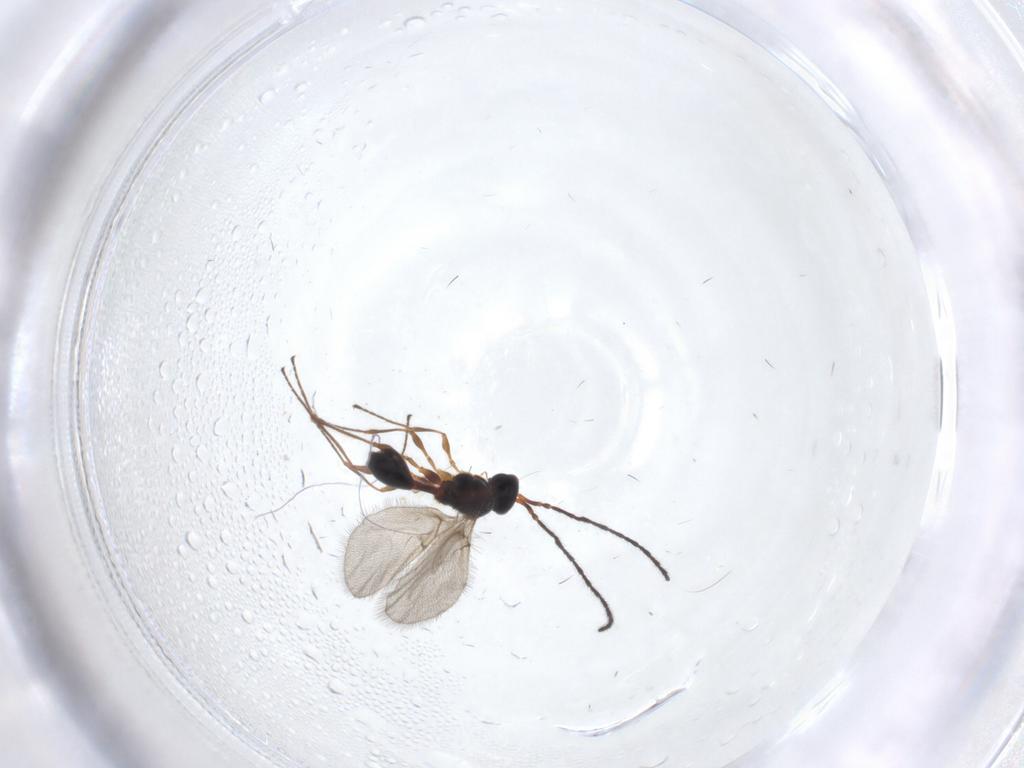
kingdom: Animalia
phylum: Arthropoda
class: Insecta
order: Hymenoptera
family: Diapriidae
